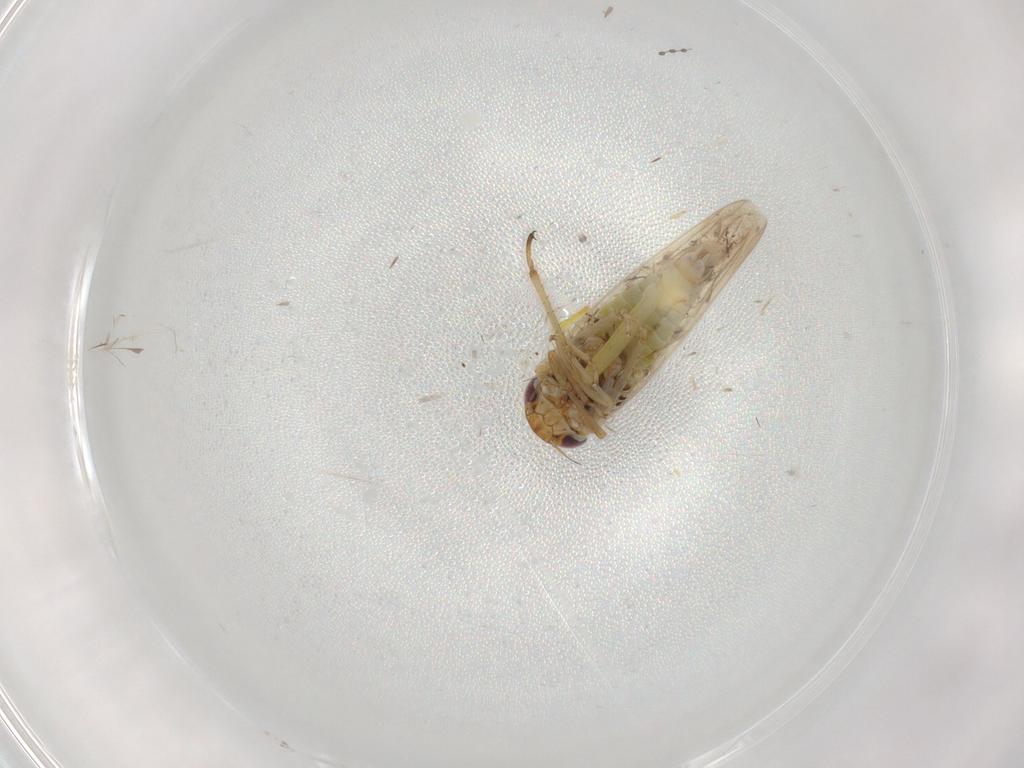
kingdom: Animalia
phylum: Arthropoda
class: Insecta
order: Hemiptera
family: Cicadellidae
